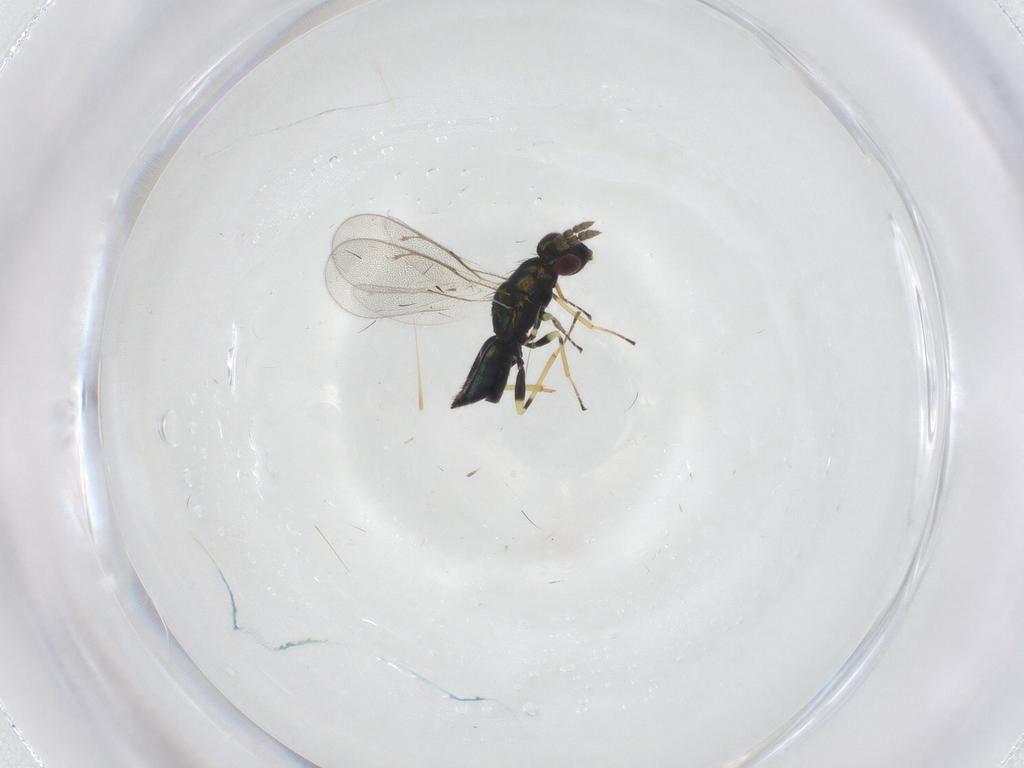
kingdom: Animalia
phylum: Arthropoda
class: Insecta
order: Hymenoptera
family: Eulophidae
